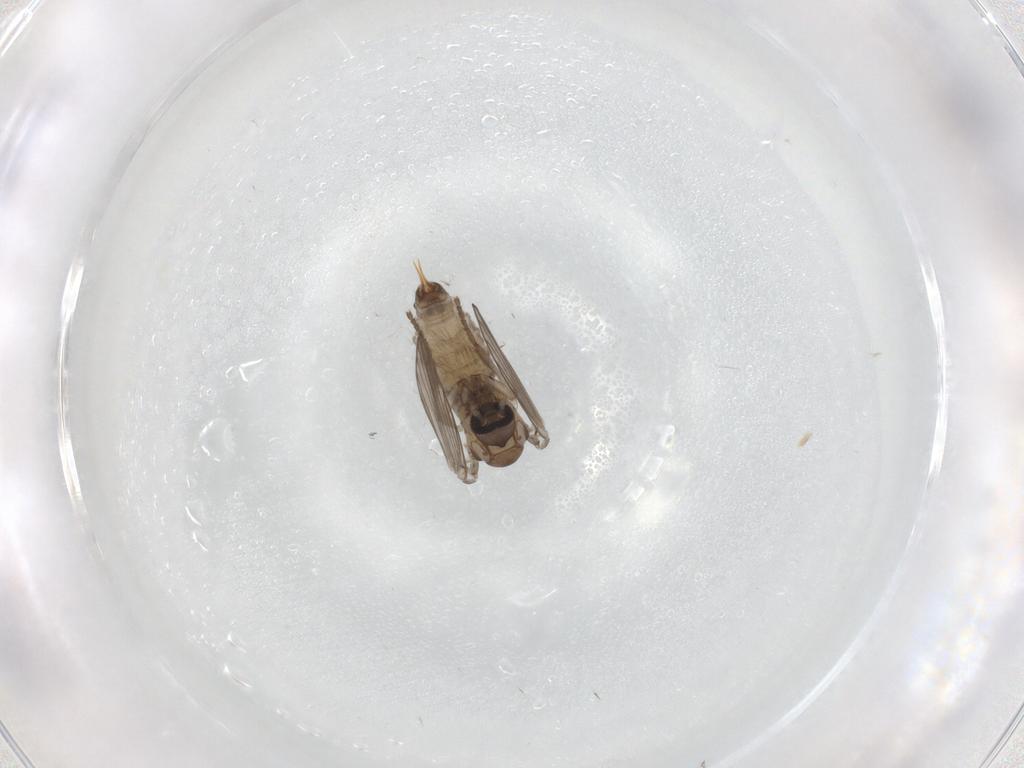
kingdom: Animalia
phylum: Arthropoda
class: Insecta
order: Diptera
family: Psychodidae
